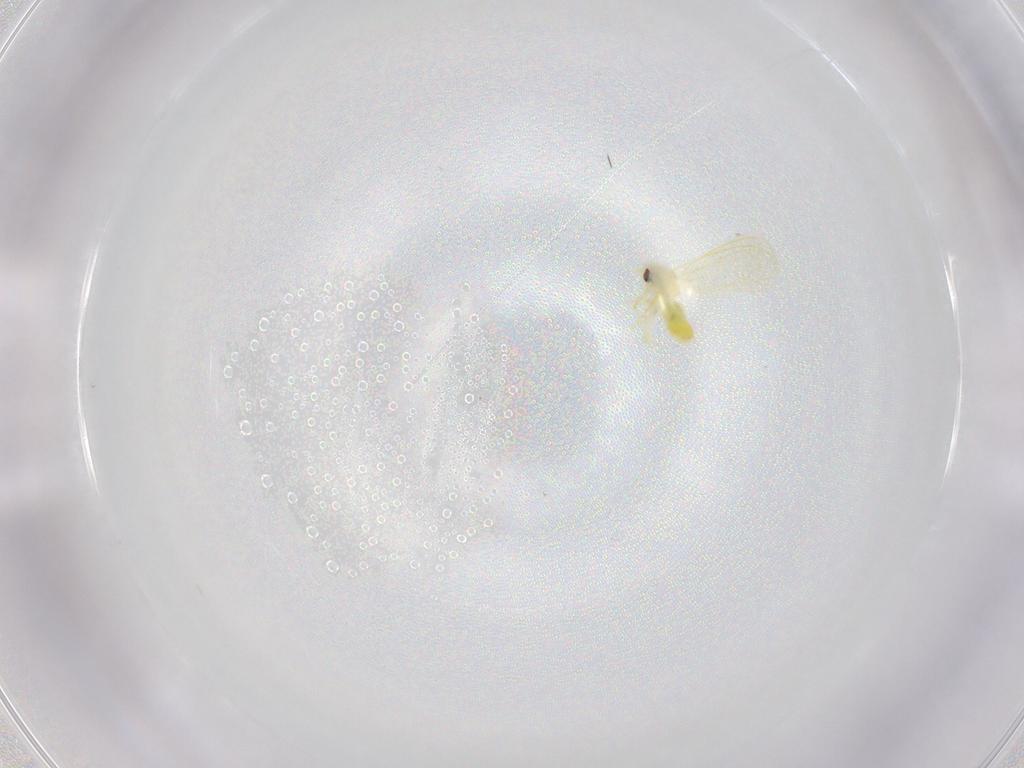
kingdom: Animalia
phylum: Arthropoda
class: Insecta
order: Hemiptera
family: Aleyrodidae
